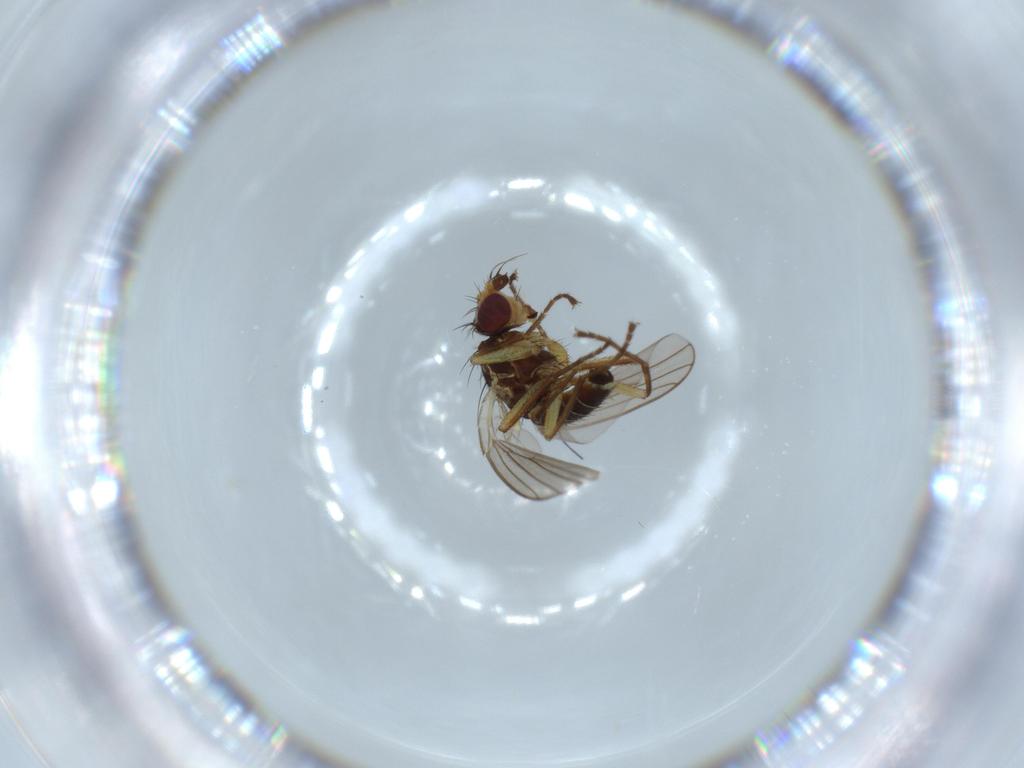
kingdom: Animalia
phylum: Arthropoda
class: Insecta
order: Diptera
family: Agromyzidae
